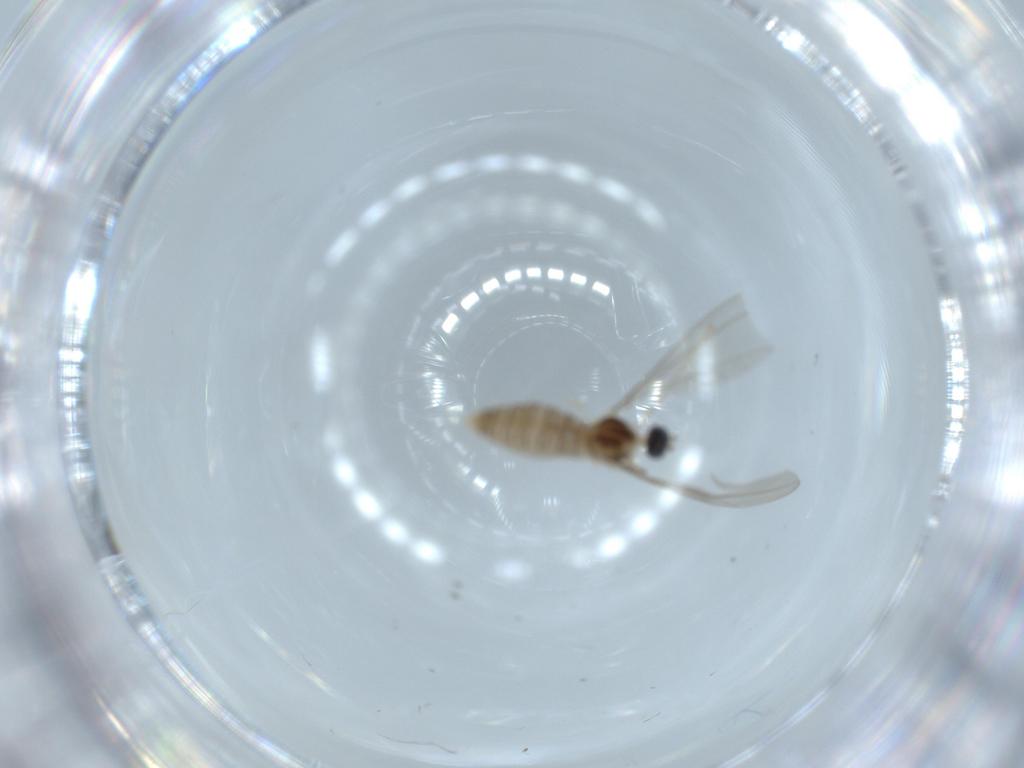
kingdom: Animalia
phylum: Arthropoda
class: Insecta
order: Diptera
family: Cecidomyiidae
